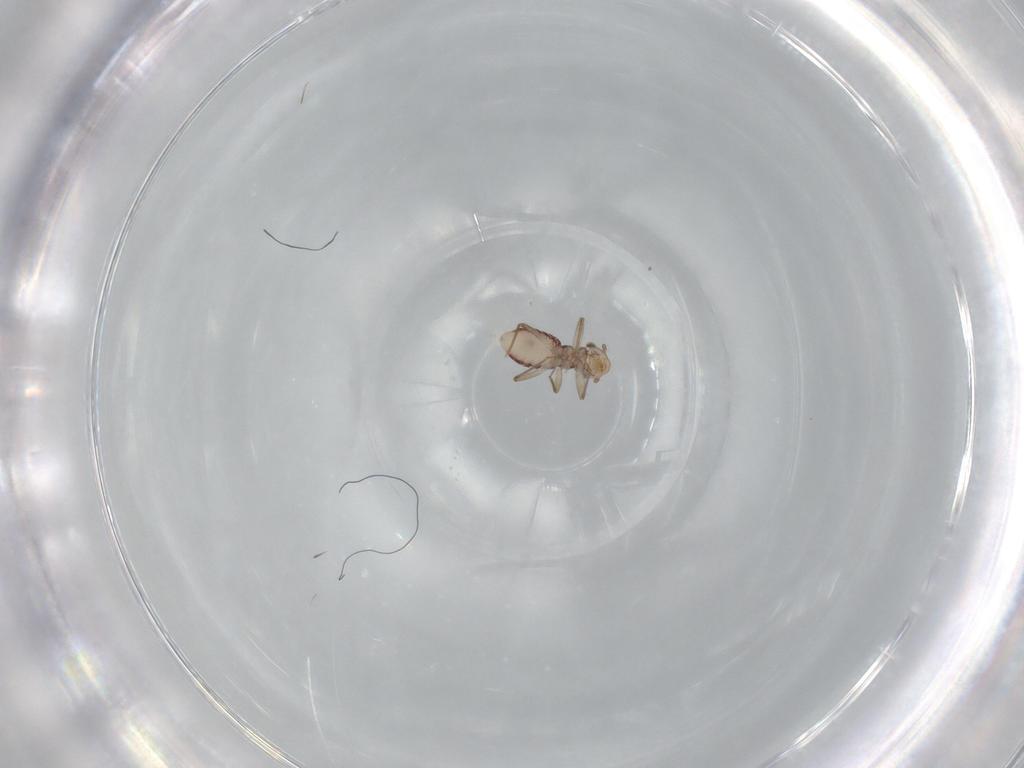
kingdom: Animalia
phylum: Arthropoda
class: Insecta
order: Psocodea
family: Lepidopsocidae
